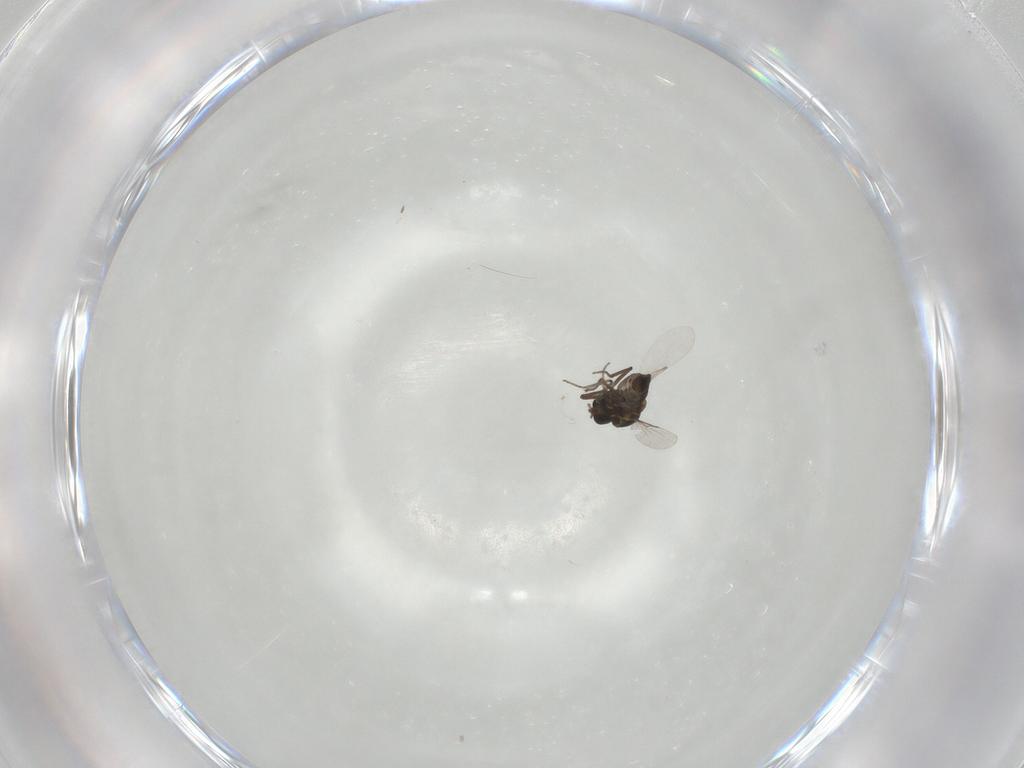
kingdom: Animalia
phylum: Arthropoda
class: Insecta
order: Diptera
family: Ceratopogonidae
